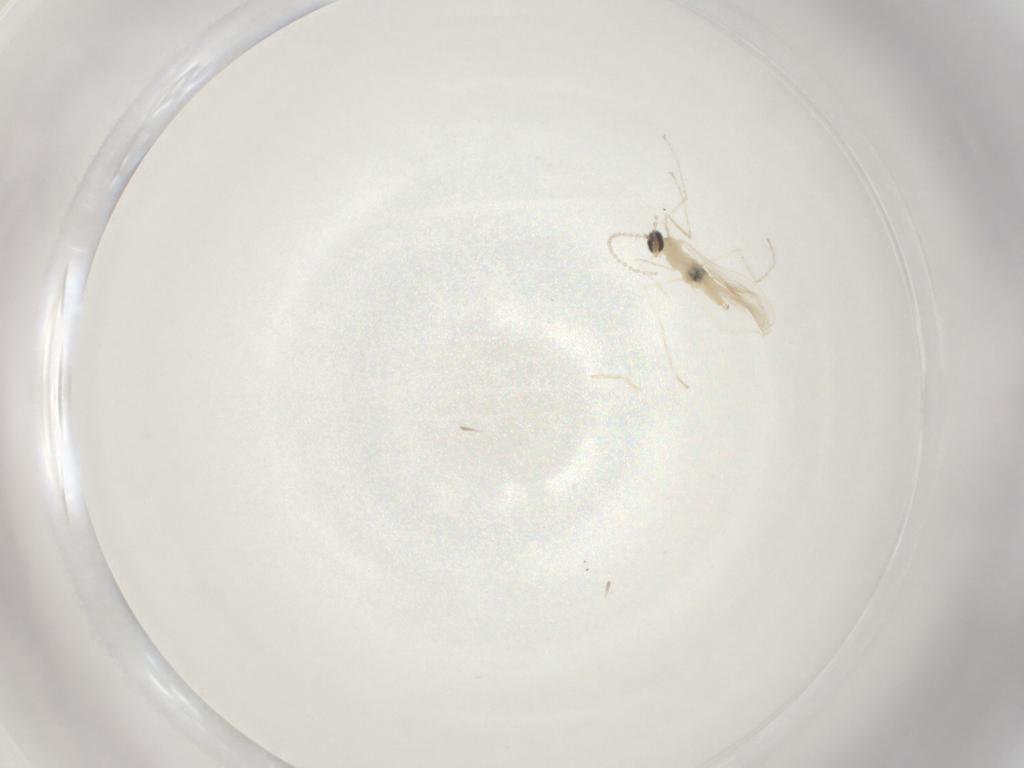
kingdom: Animalia
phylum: Arthropoda
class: Insecta
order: Diptera
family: Cecidomyiidae
